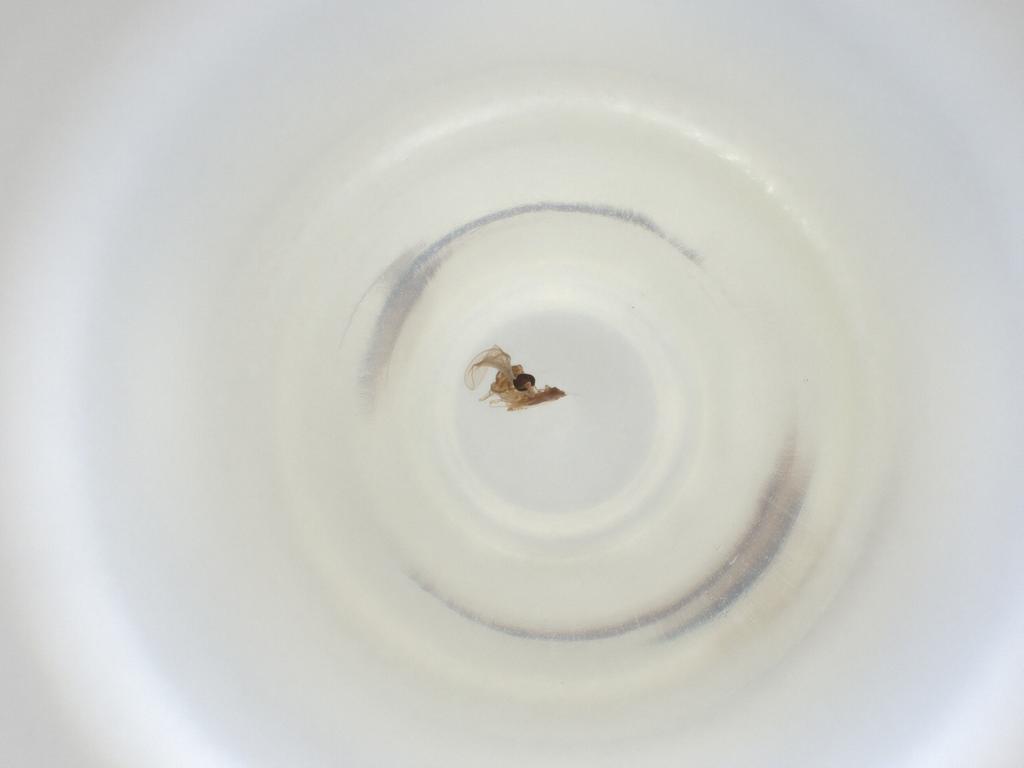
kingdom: Animalia
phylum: Arthropoda
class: Insecta
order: Diptera
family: Cecidomyiidae
